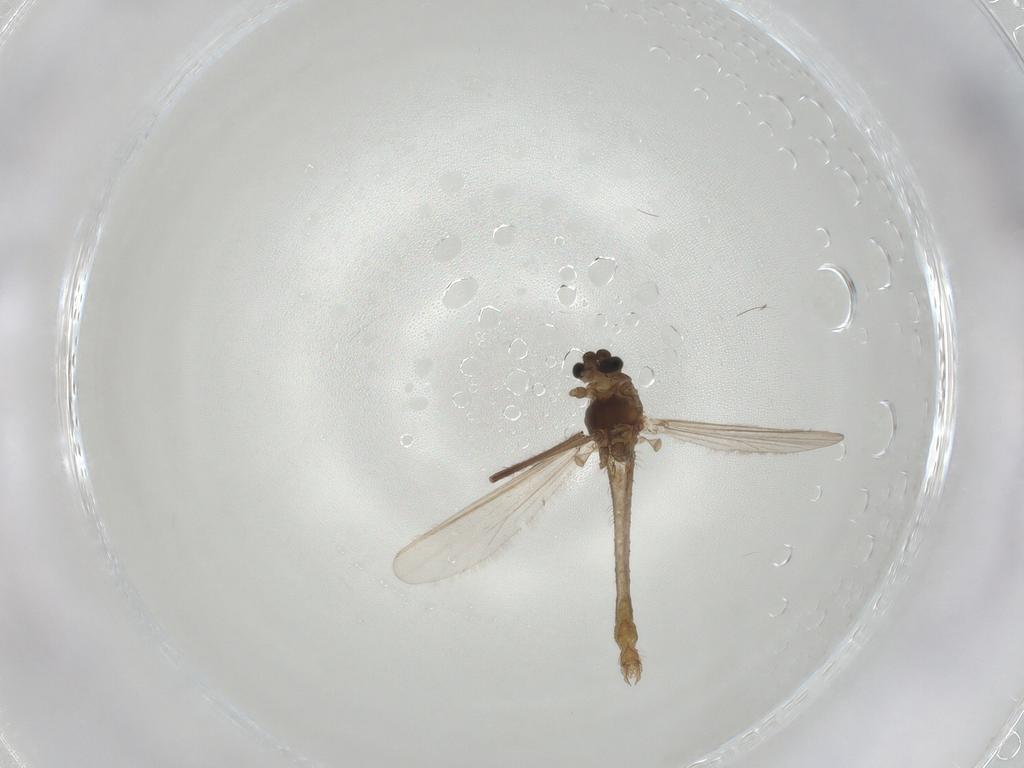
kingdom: Animalia
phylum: Arthropoda
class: Insecta
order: Diptera
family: Chironomidae
